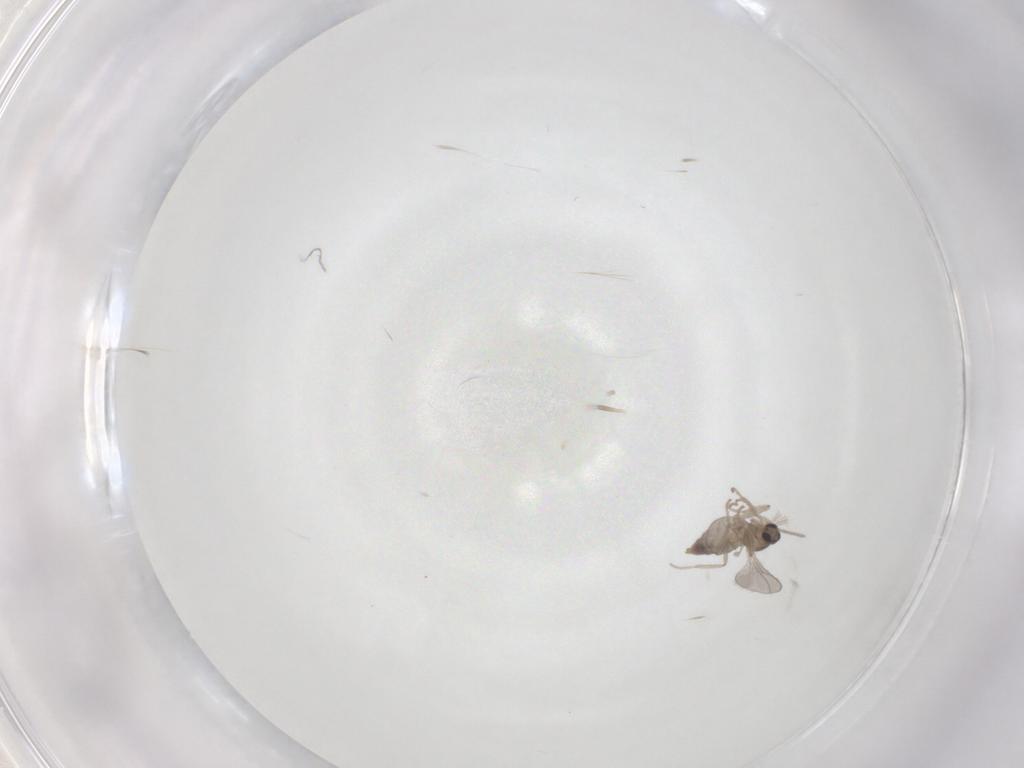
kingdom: Animalia
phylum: Arthropoda
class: Insecta
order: Diptera
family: Cecidomyiidae
